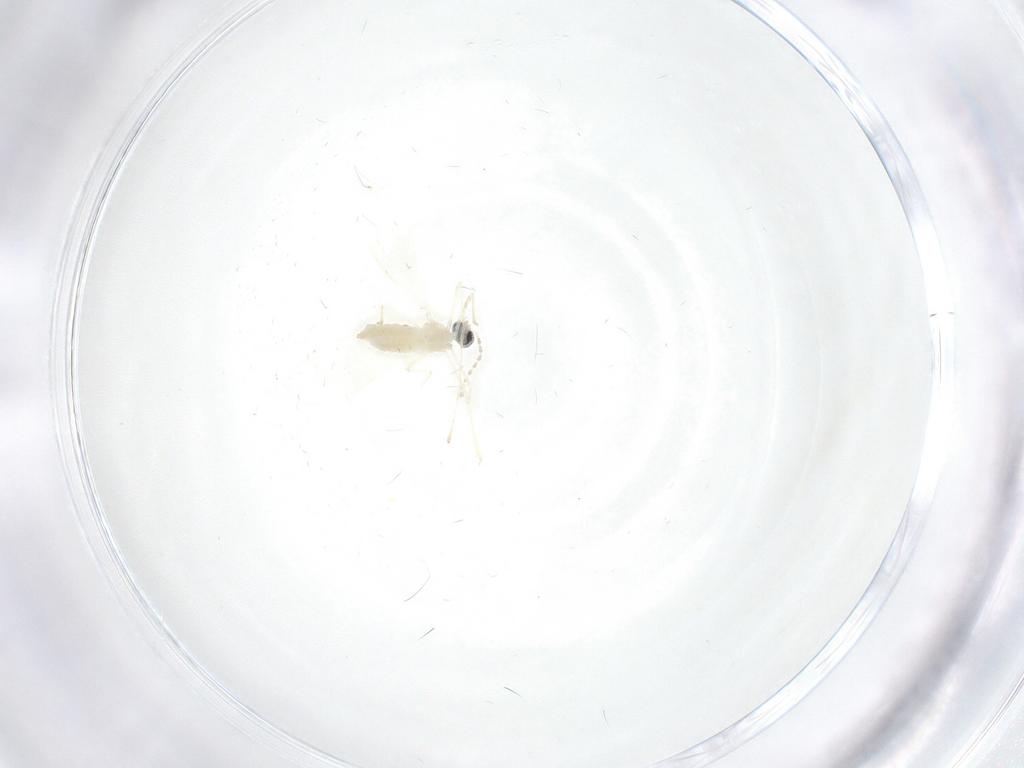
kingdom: Animalia
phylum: Arthropoda
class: Insecta
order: Diptera
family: Cecidomyiidae
